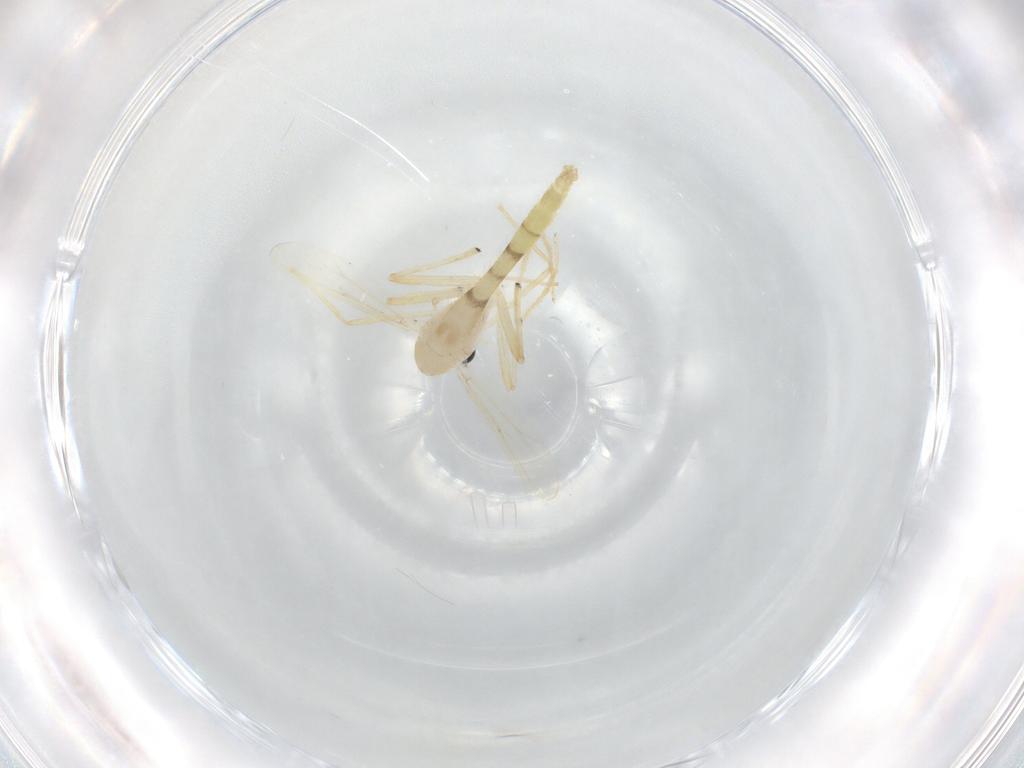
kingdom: Animalia
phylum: Arthropoda
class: Insecta
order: Diptera
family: Chironomidae
